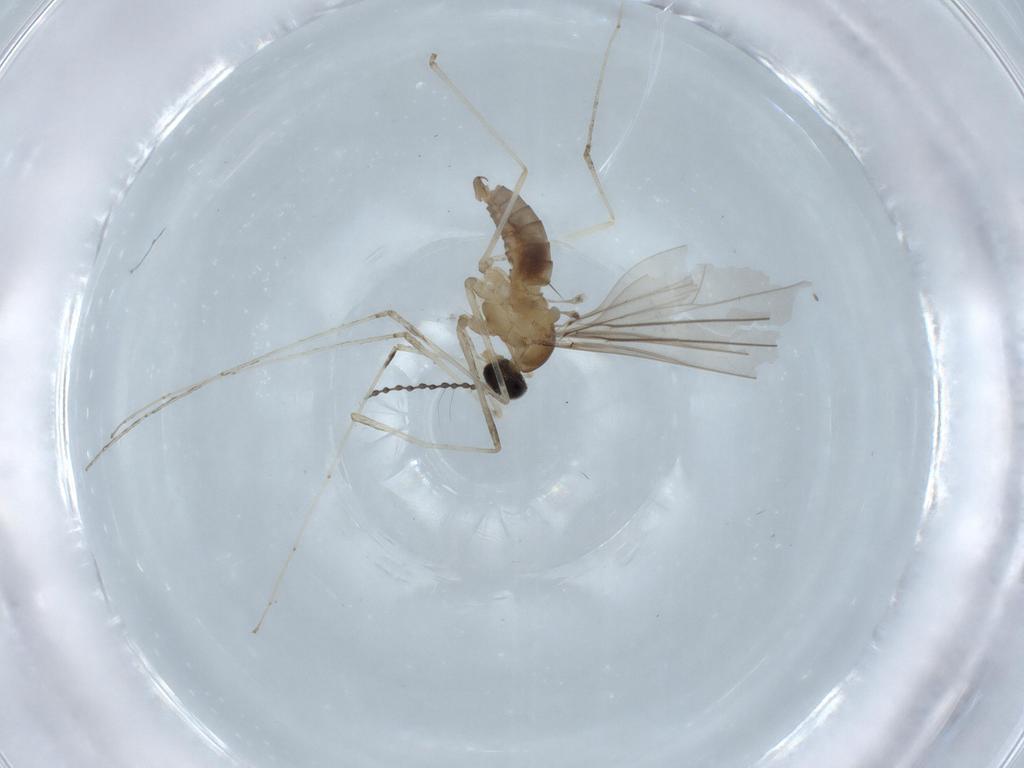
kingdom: Animalia
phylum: Arthropoda
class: Insecta
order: Diptera
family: Cecidomyiidae
